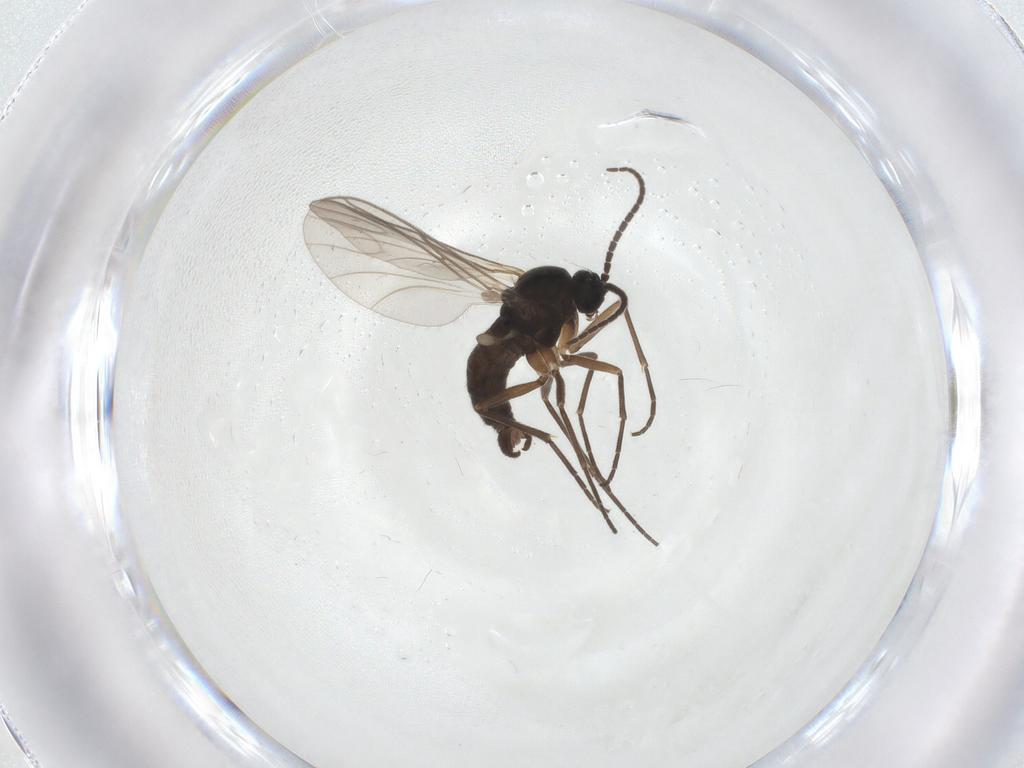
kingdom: Animalia
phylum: Arthropoda
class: Insecta
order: Diptera
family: Sciaridae
